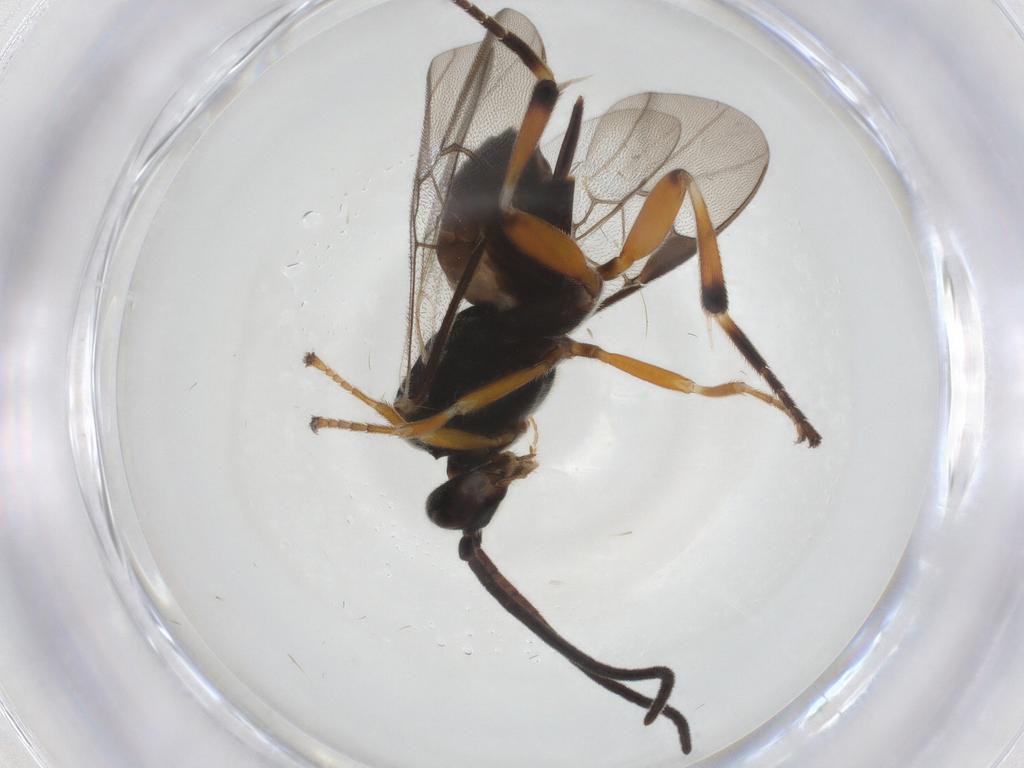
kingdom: Animalia
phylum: Arthropoda
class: Insecta
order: Hymenoptera
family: Braconidae
